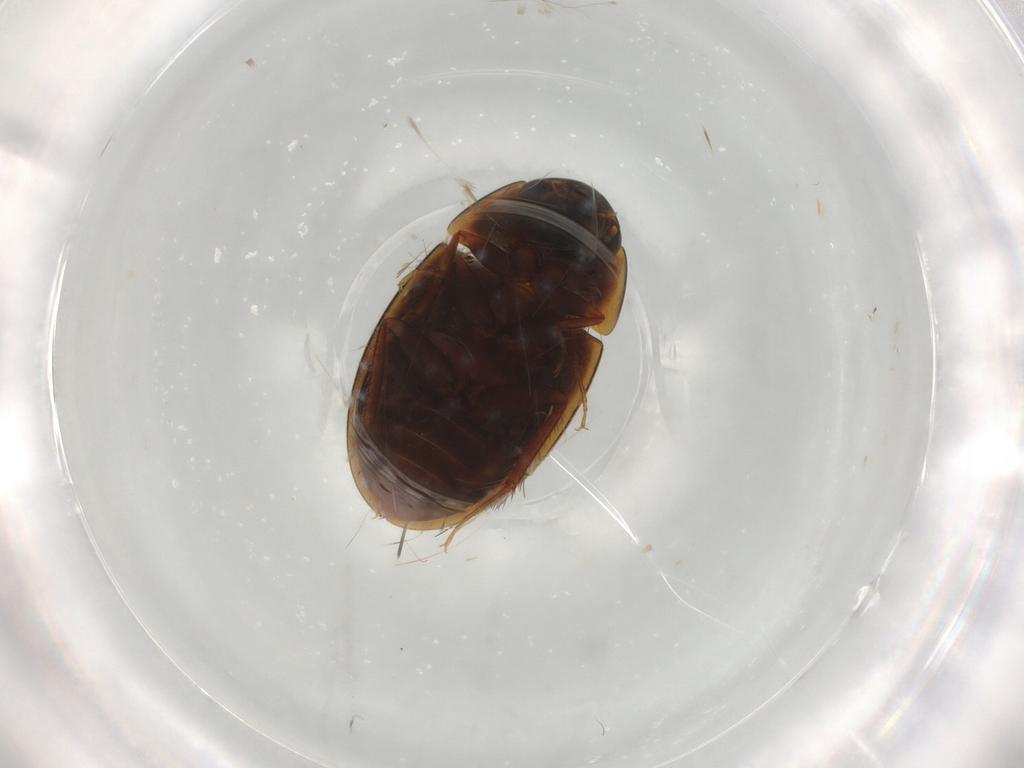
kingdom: Animalia
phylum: Arthropoda
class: Insecta
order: Coleoptera
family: Hydrophilidae
